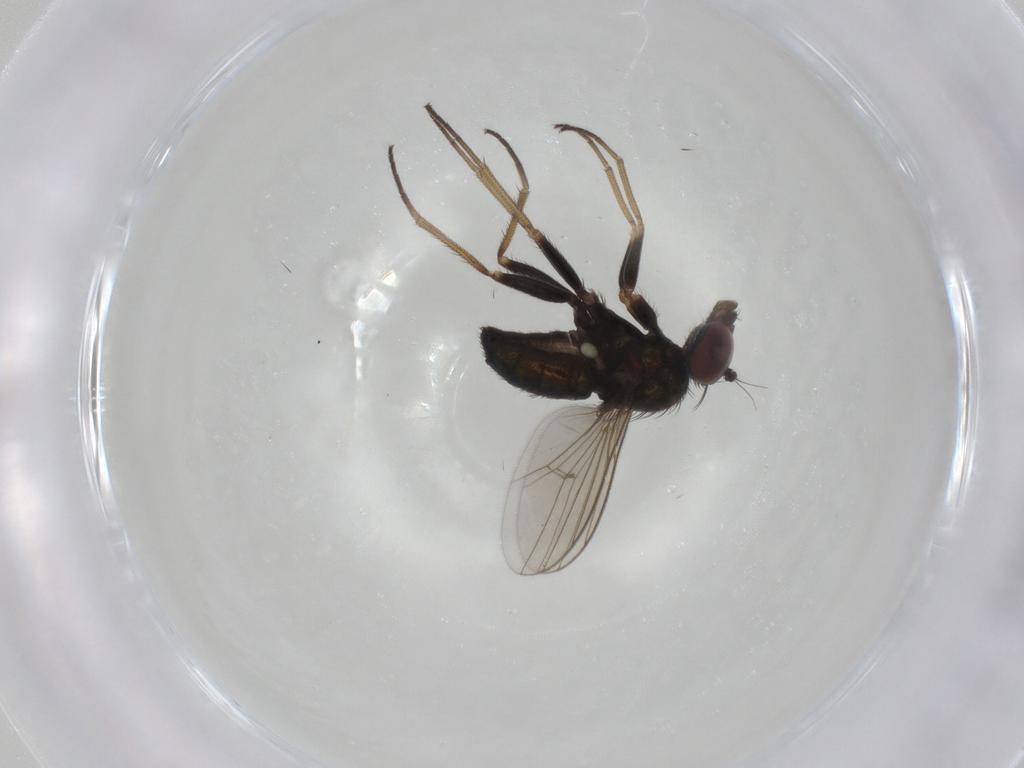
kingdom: Animalia
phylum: Arthropoda
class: Insecta
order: Diptera
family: Dolichopodidae
